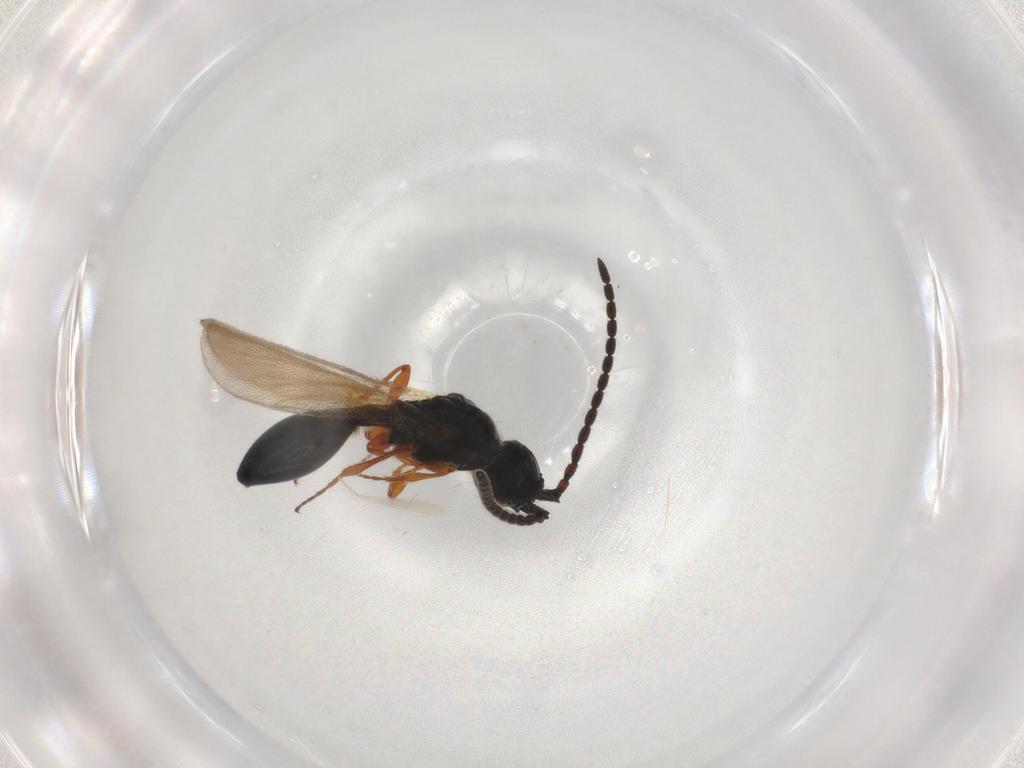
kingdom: Animalia
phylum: Arthropoda
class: Insecta
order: Hymenoptera
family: Diapriidae
